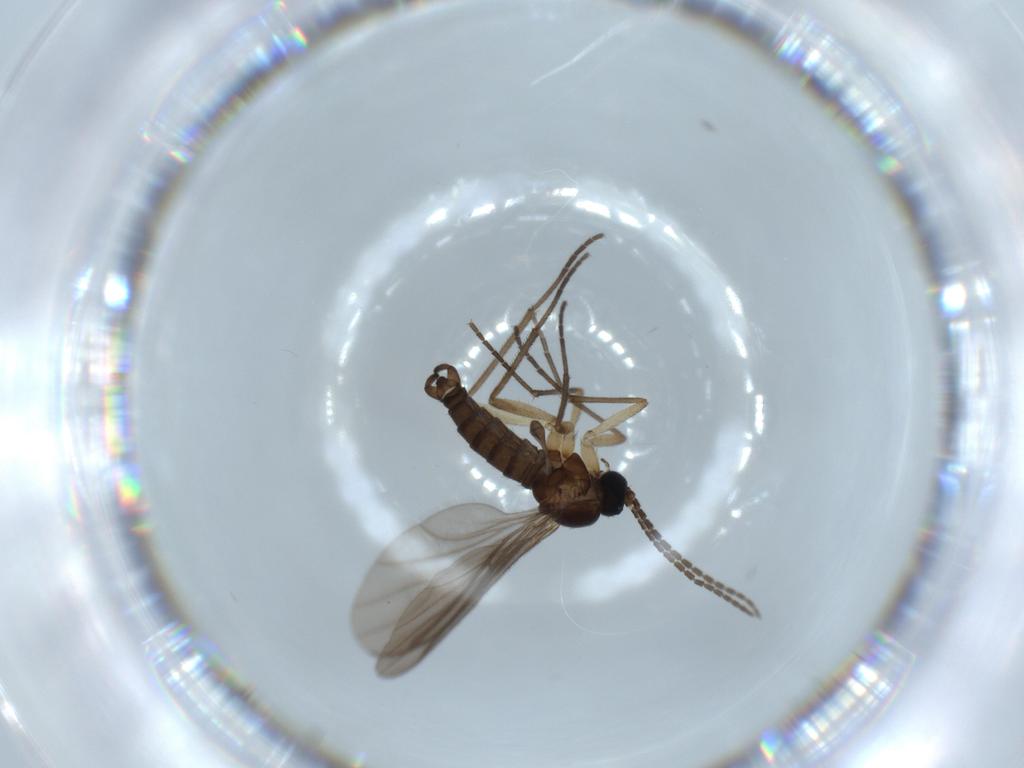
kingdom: Animalia
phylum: Arthropoda
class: Insecta
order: Diptera
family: Sciaridae
